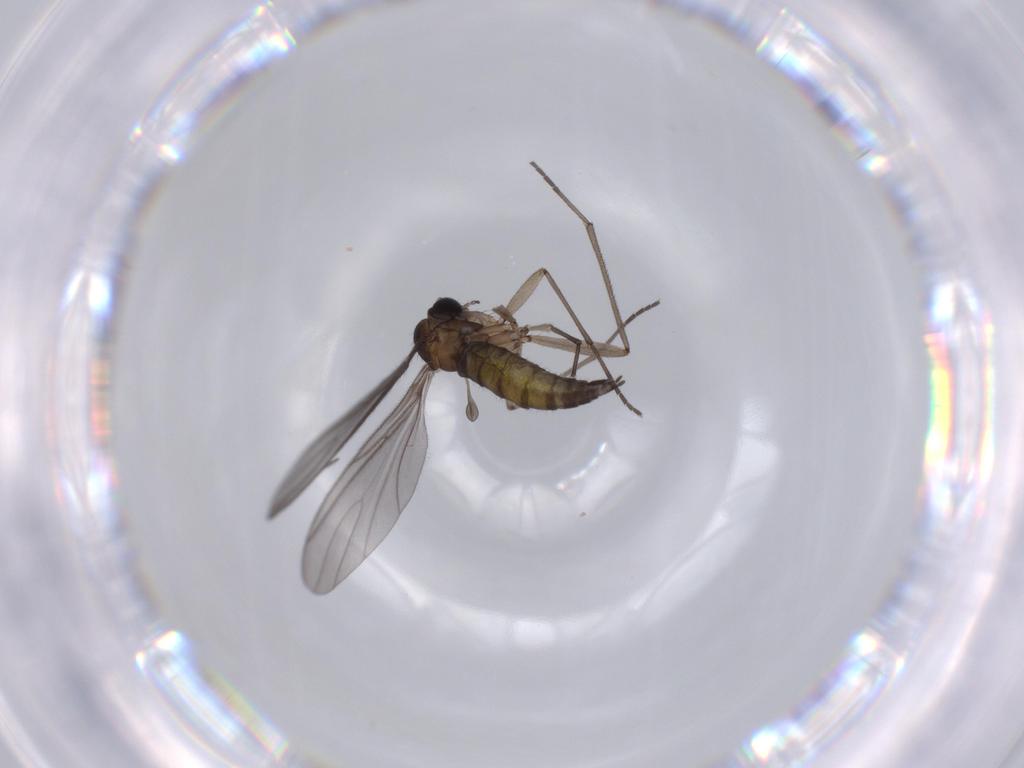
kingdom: Animalia
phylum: Arthropoda
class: Insecta
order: Diptera
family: Sciaridae
